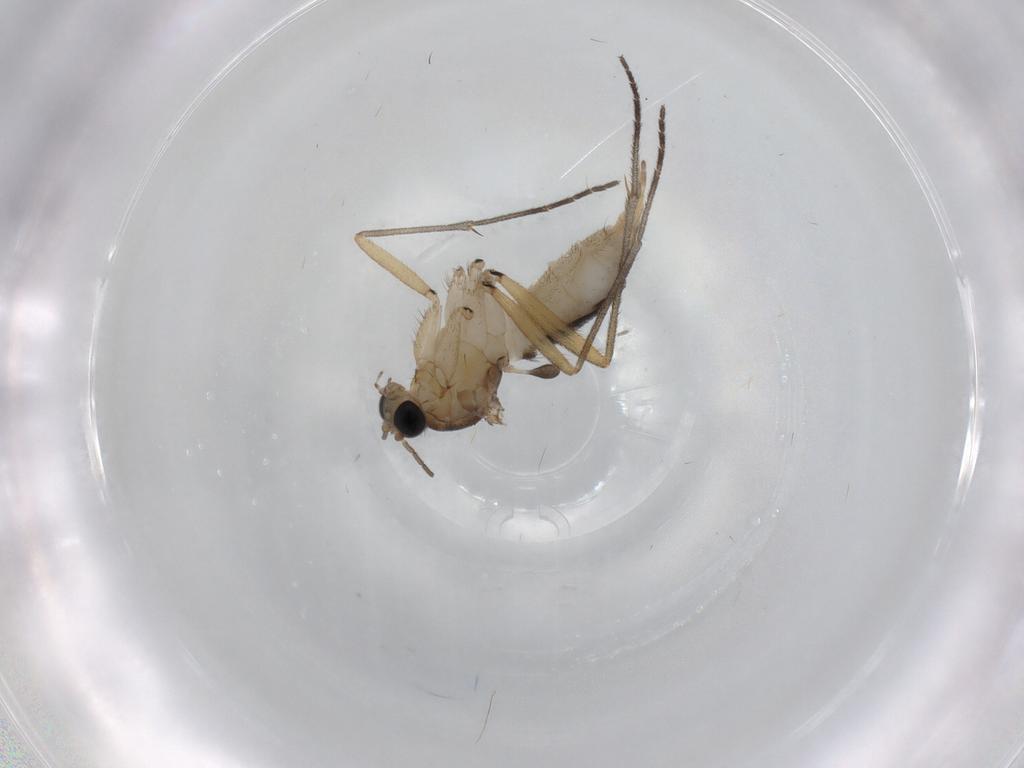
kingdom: Animalia
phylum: Arthropoda
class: Insecta
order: Diptera
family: Sciaridae
